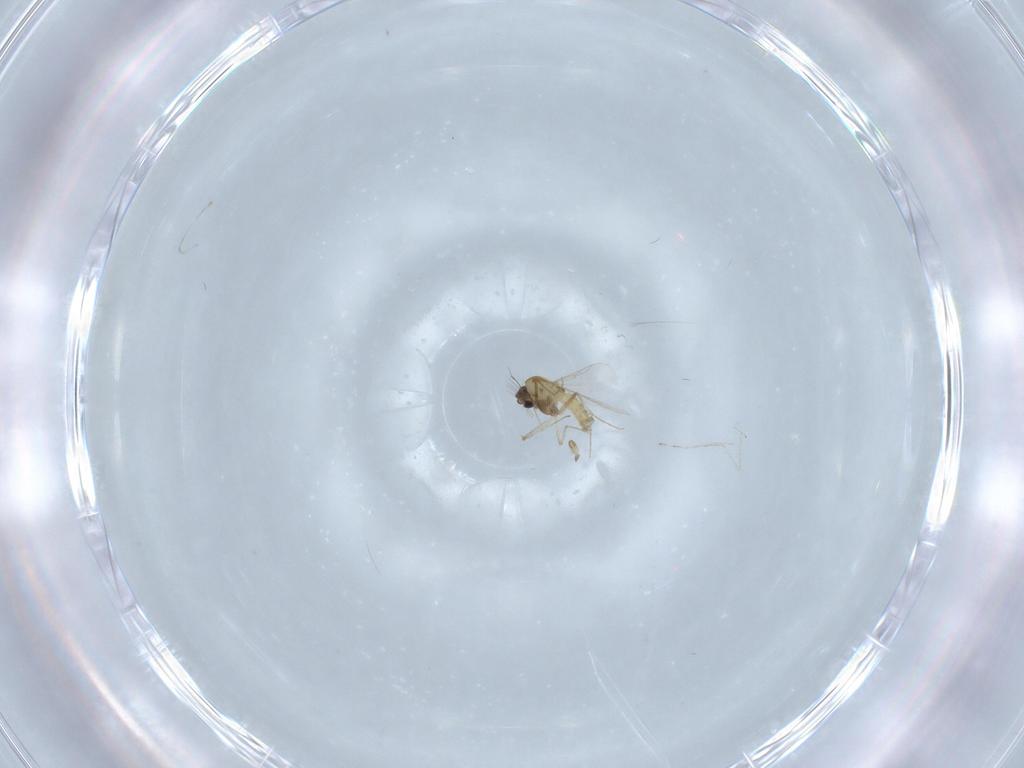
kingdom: Animalia
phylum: Arthropoda
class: Insecta
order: Diptera
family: Chironomidae
